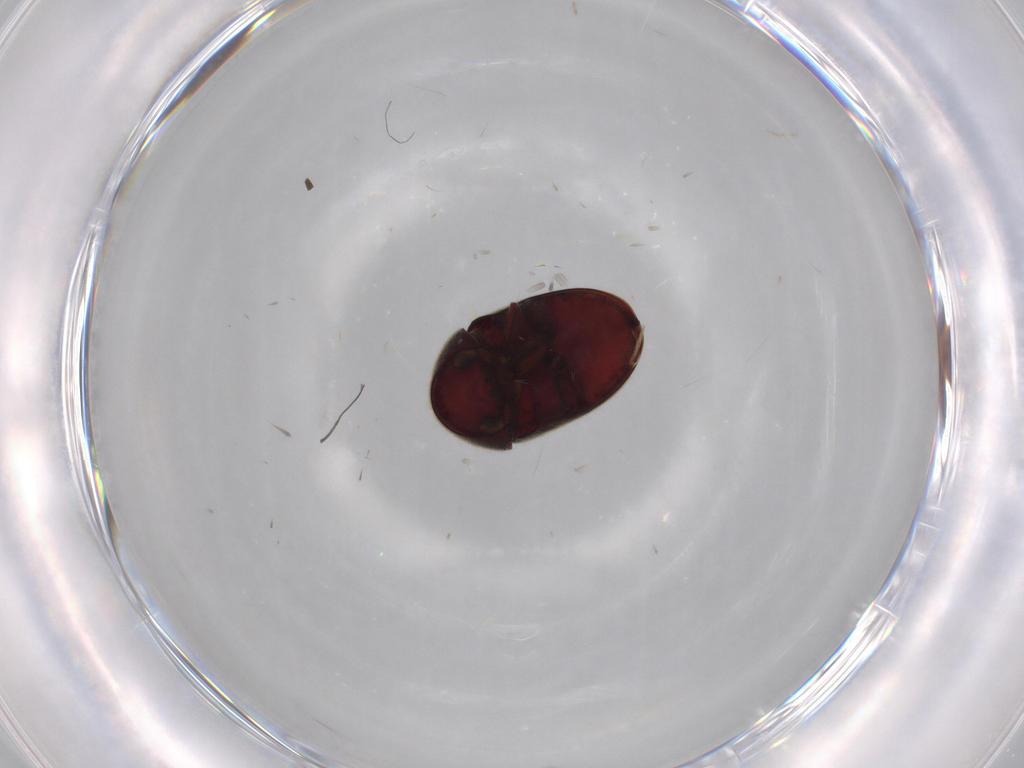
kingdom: Animalia
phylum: Arthropoda
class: Insecta
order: Coleoptera
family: Ptinidae
